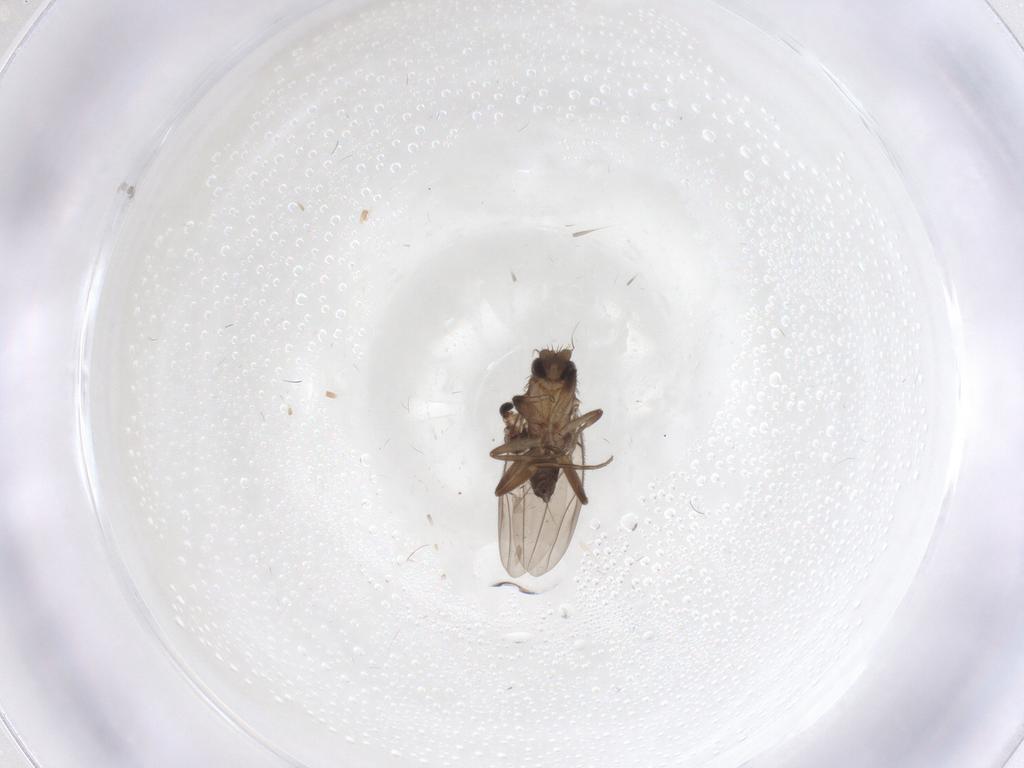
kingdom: Animalia
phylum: Arthropoda
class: Insecta
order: Diptera
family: Phoridae
